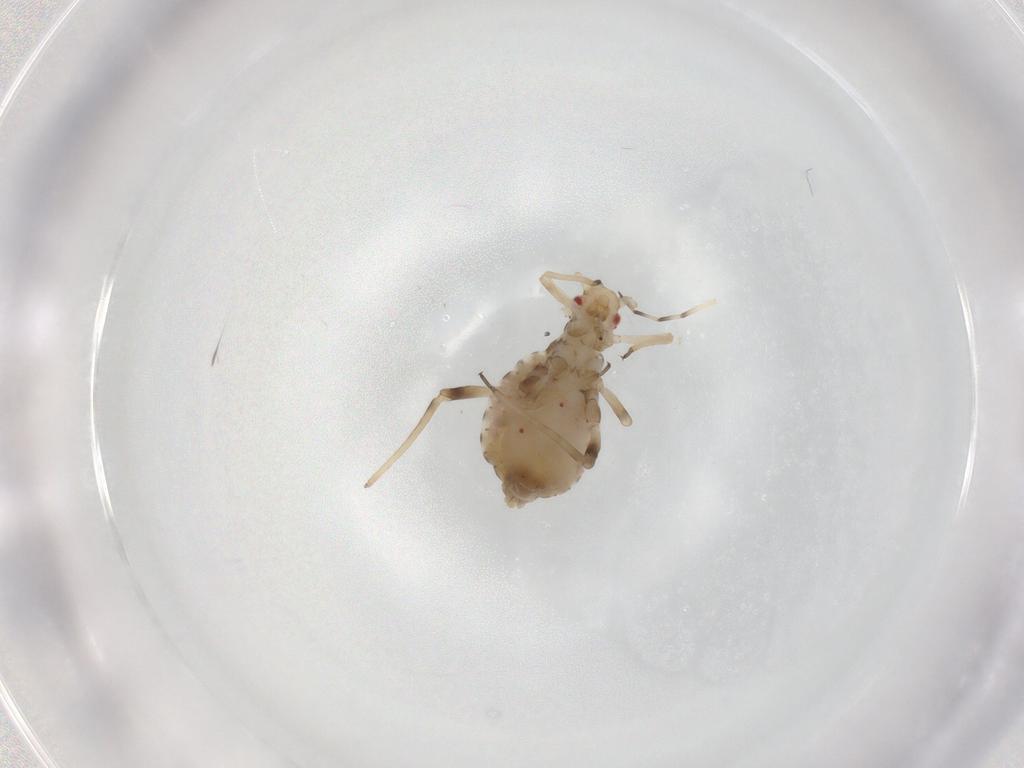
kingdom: Animalia
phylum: Arthropoda
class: Insecta
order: Hemiptera
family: Aphididae
